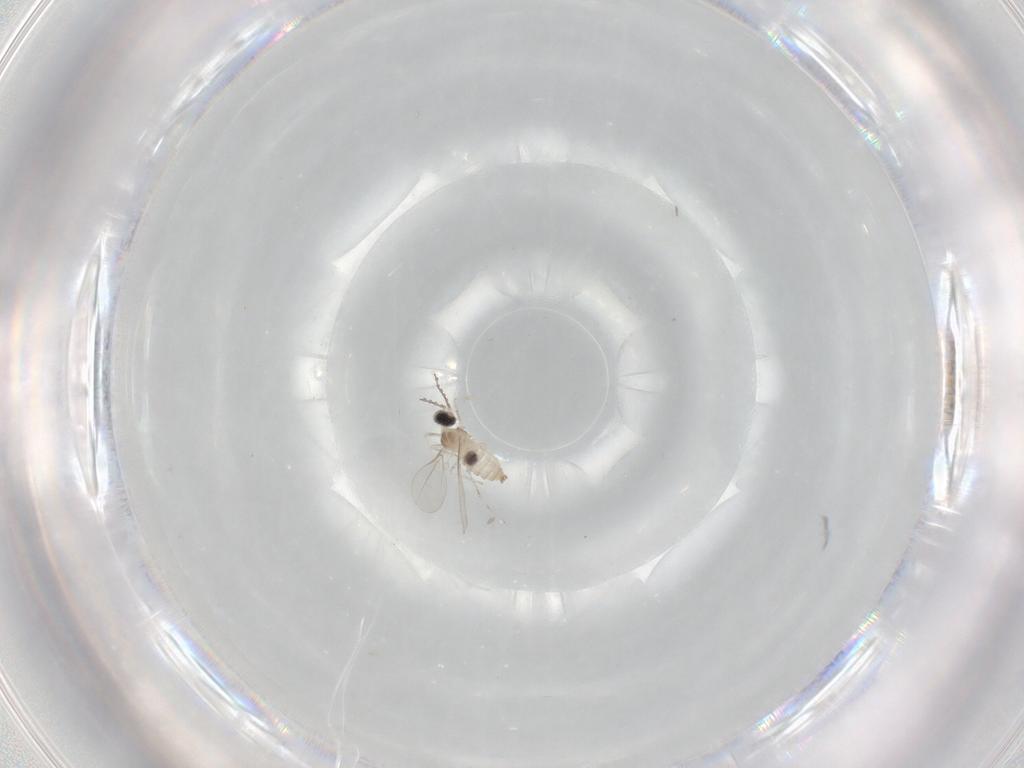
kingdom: Animalia
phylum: Arthropoda
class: Insecta
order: Diptera
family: Cecidomyiidae
